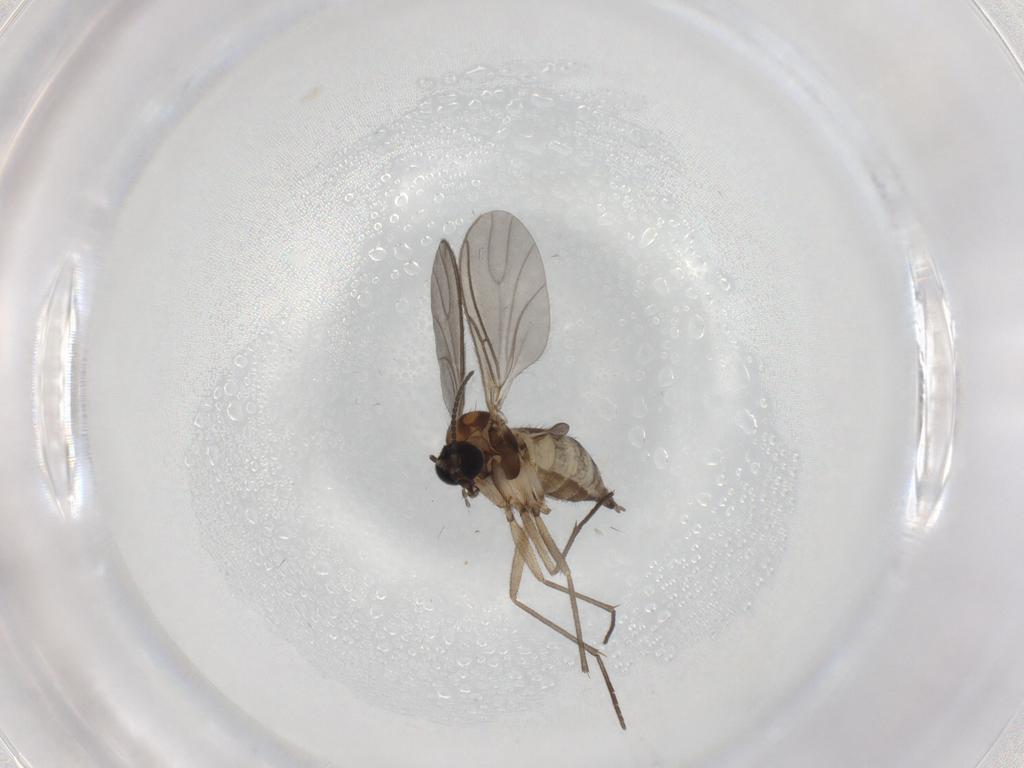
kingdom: Animalia
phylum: Arthropoda
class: Insecta
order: Diptera
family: Sciaridae
